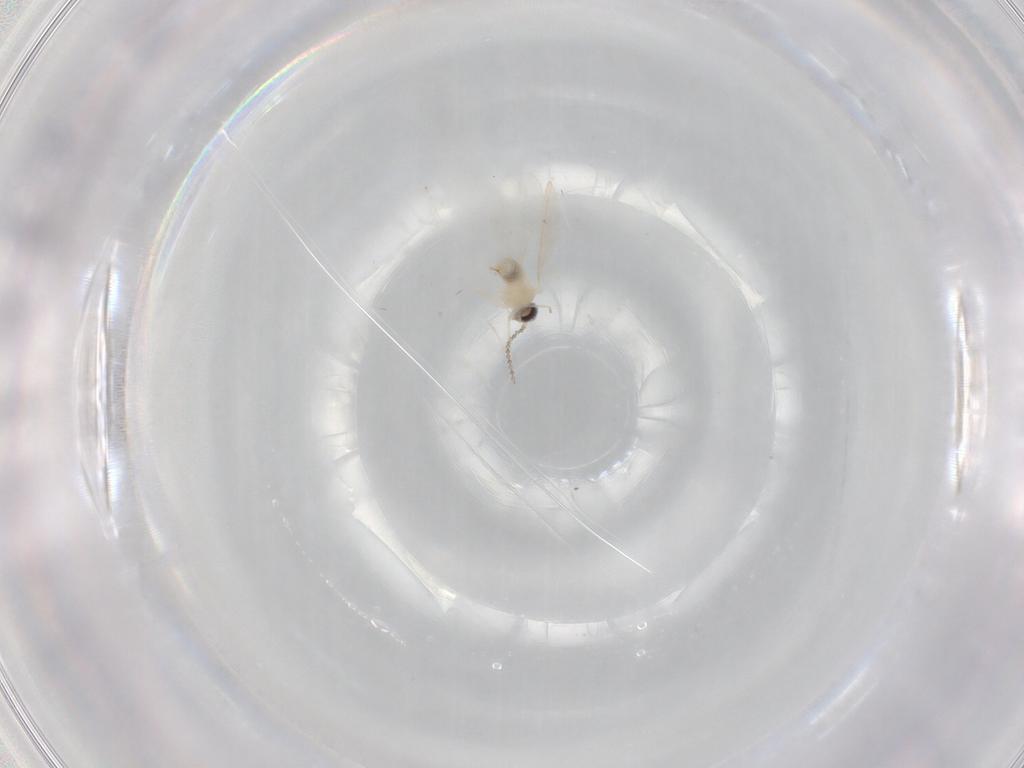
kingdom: Animalia
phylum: Arthropoda
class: Insecta
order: Diptera
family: Cecidomyiidae
